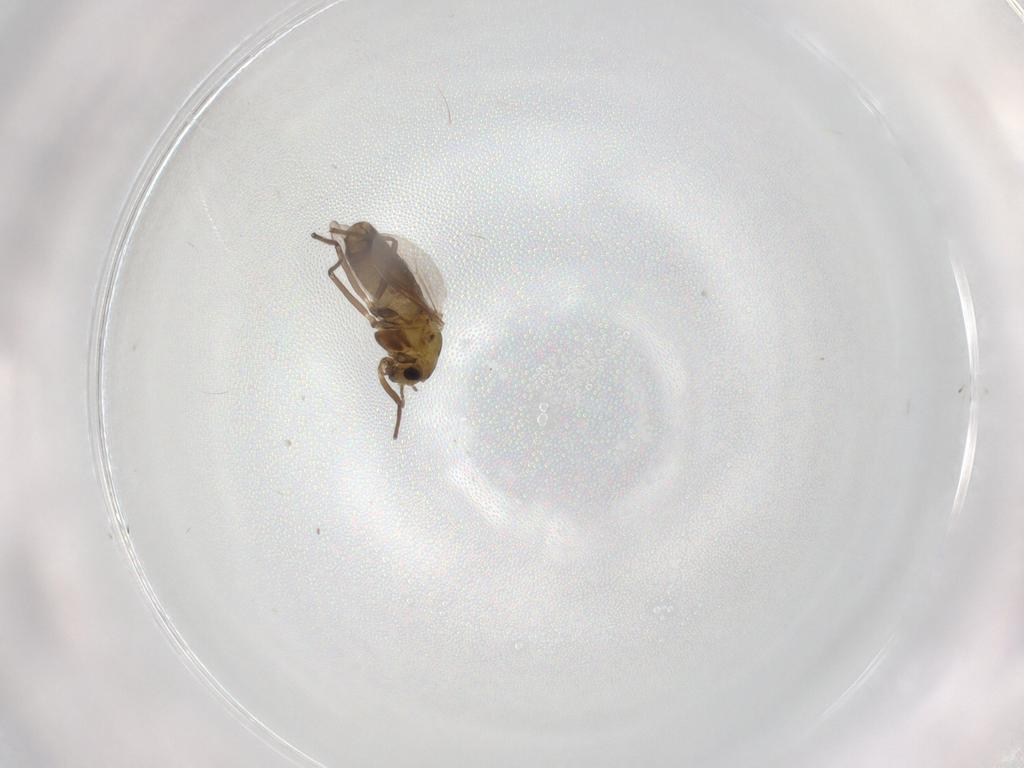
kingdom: Animalia
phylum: Arthropoda
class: Insecta
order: Diptera
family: Chironomidae
